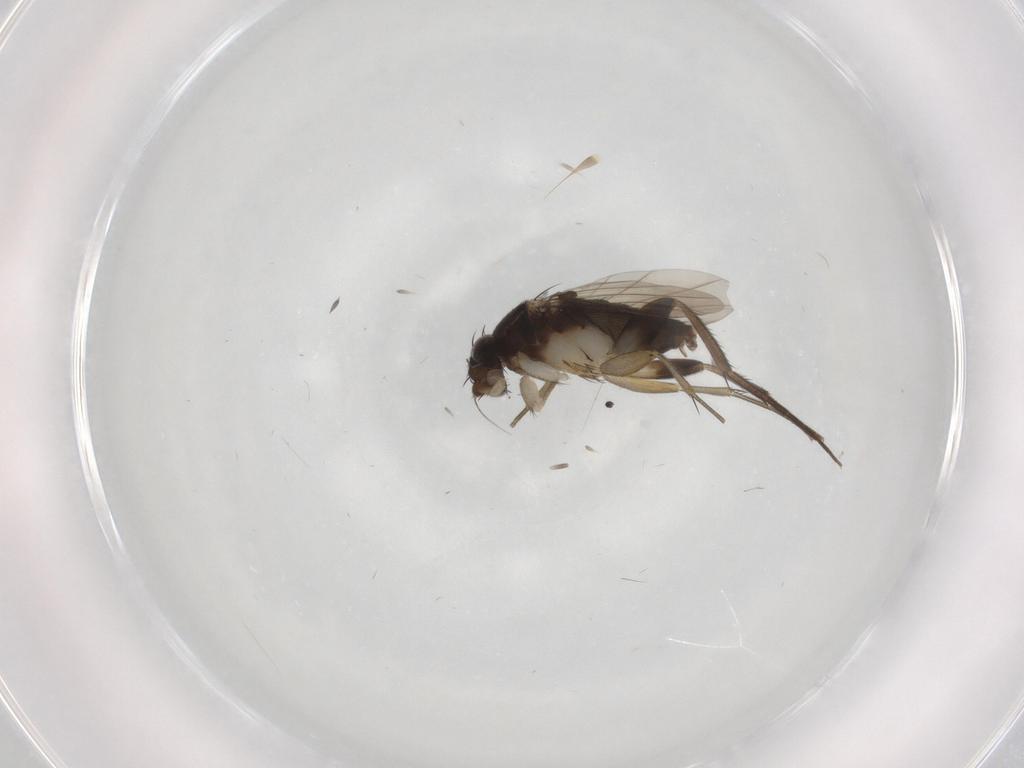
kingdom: Animalia
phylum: Arthropoda
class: Insecta
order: Diptera
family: Phoridae
